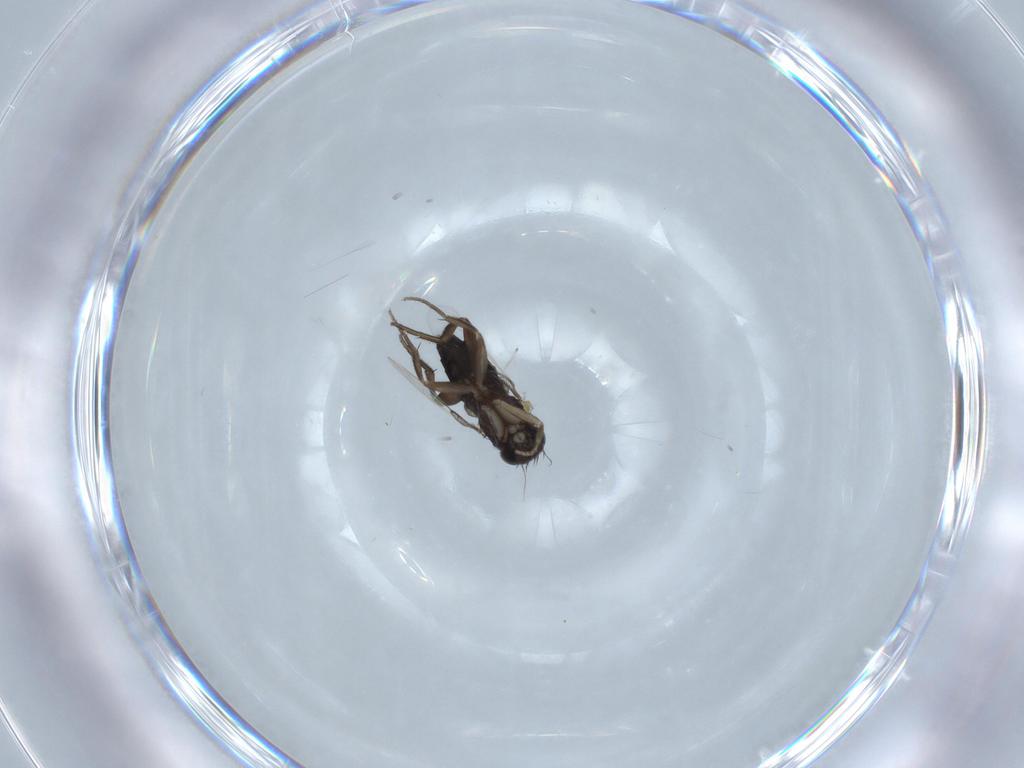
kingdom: Animalia
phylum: Arthropoda
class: Insecta
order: Diptera
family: Phoridae
